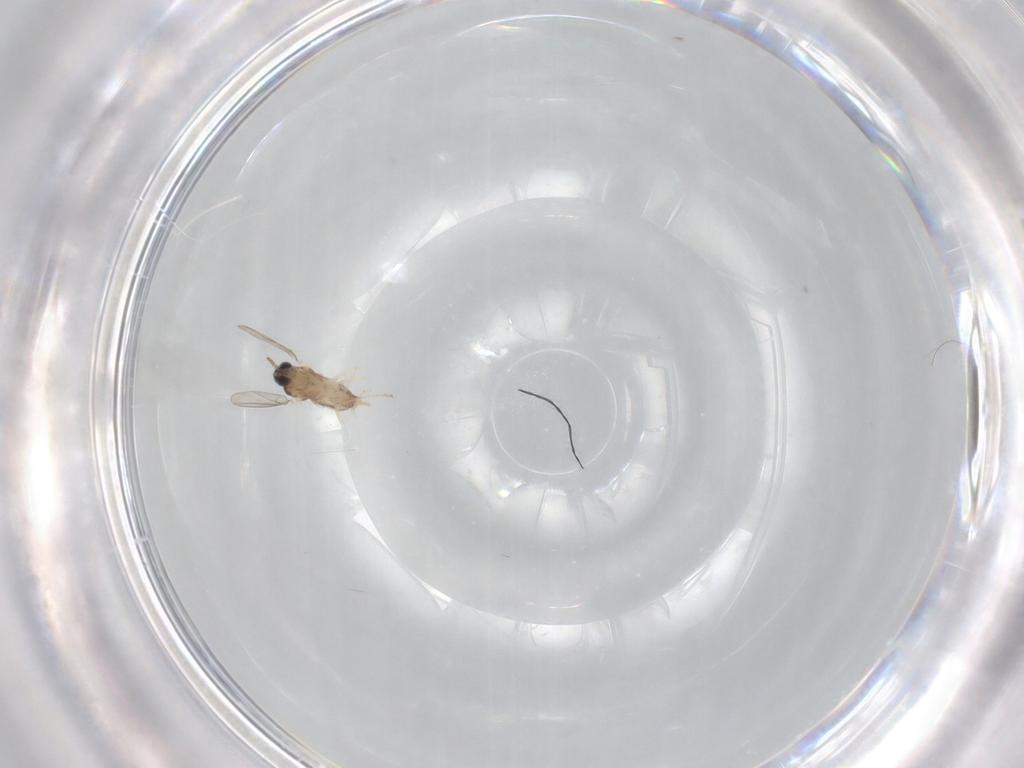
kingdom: Animalia
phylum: Arthropoda
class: Insecta
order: Diptera
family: Cecidomyiidae
